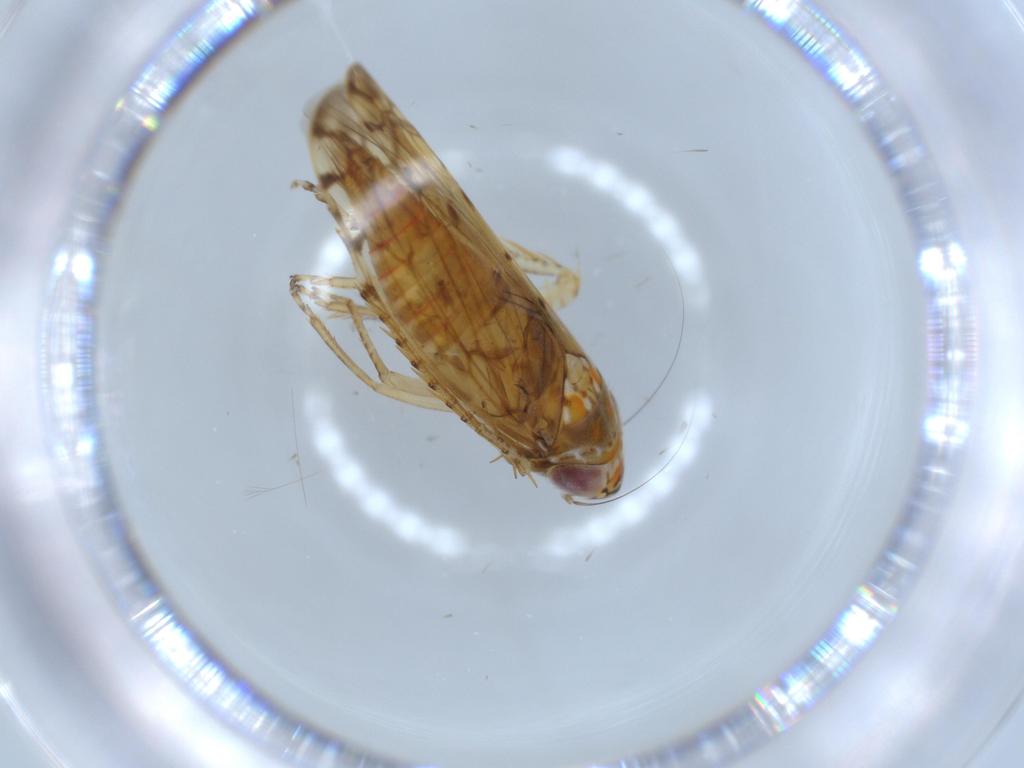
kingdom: Animalia
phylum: Arthropoda
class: Insecta
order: Hemiptera
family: Cicadellidae
